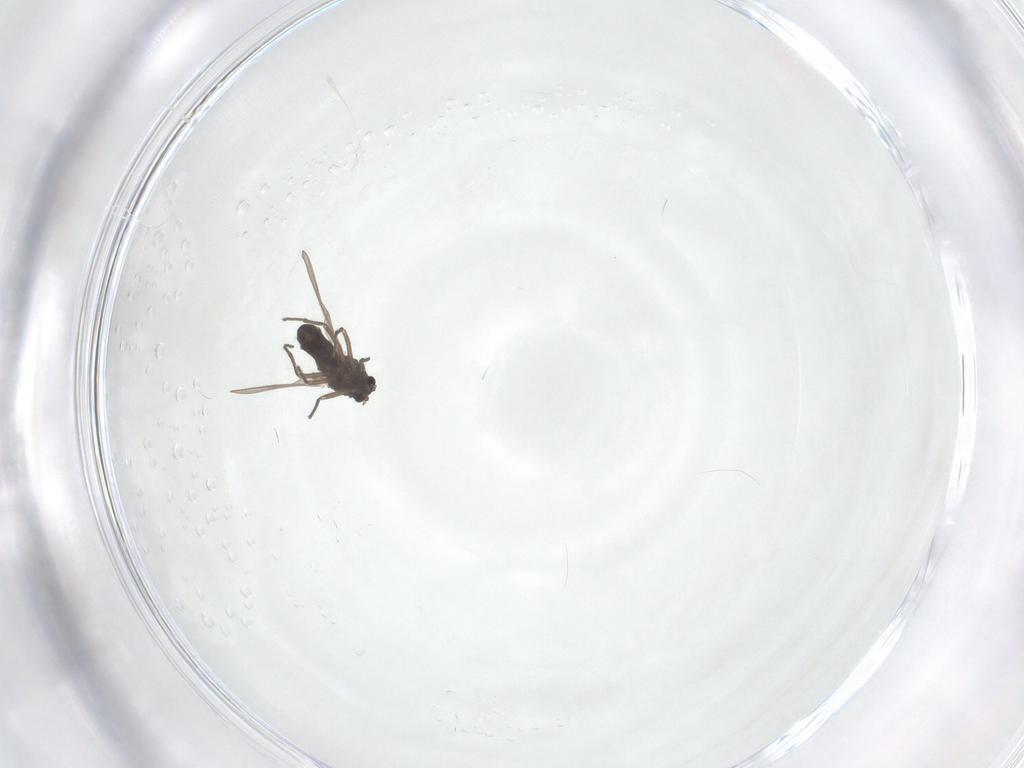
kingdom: Animalia
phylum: Arthropoda
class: Insecta
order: Diptera
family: Chironomidae
